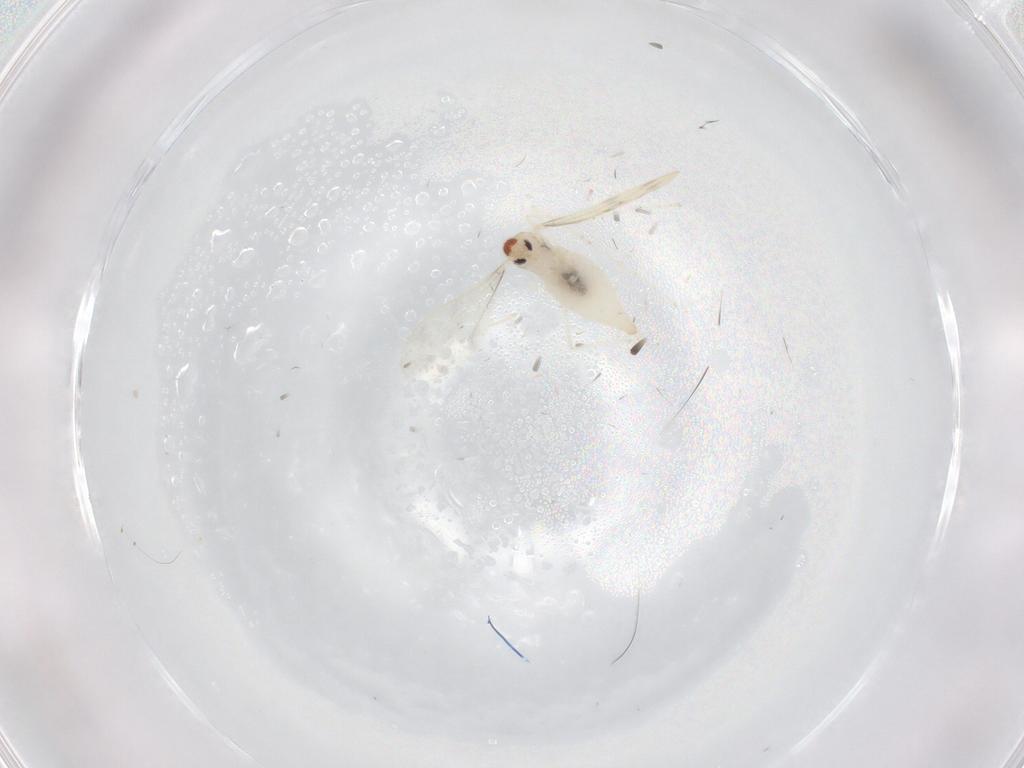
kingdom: Animalia
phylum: Arthropoda
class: Insecta
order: Diptera
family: Cecidomyiidae
